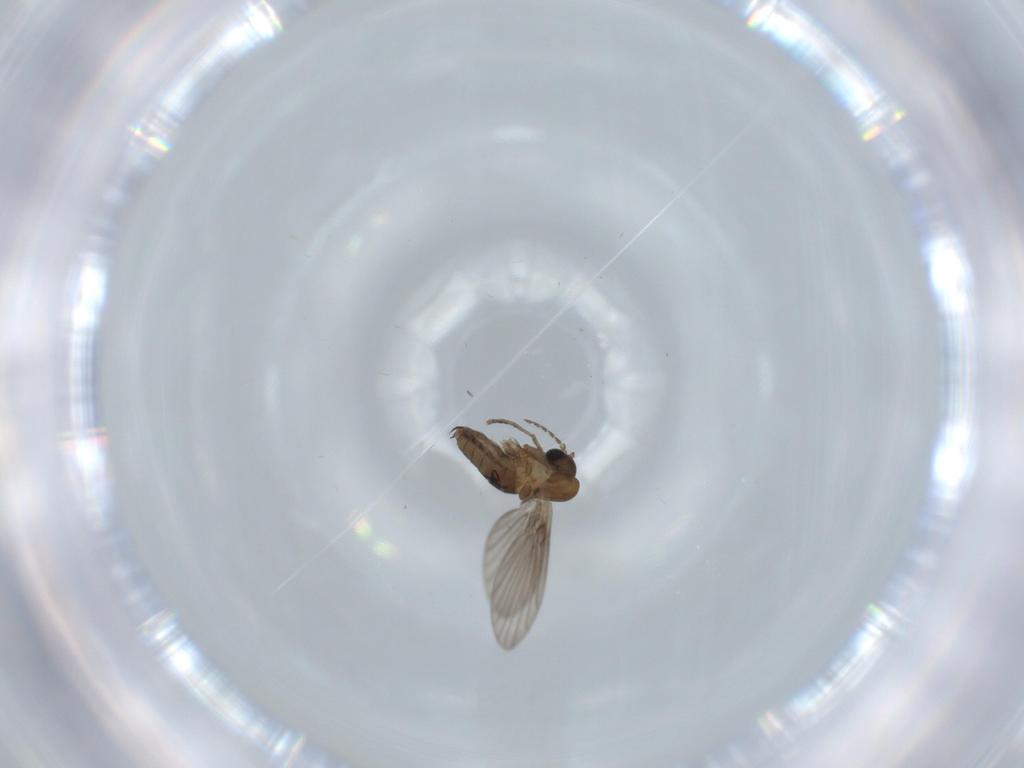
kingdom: Animalia
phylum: Arthropoda
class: Insecta
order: Diptera
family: Psychodidae
